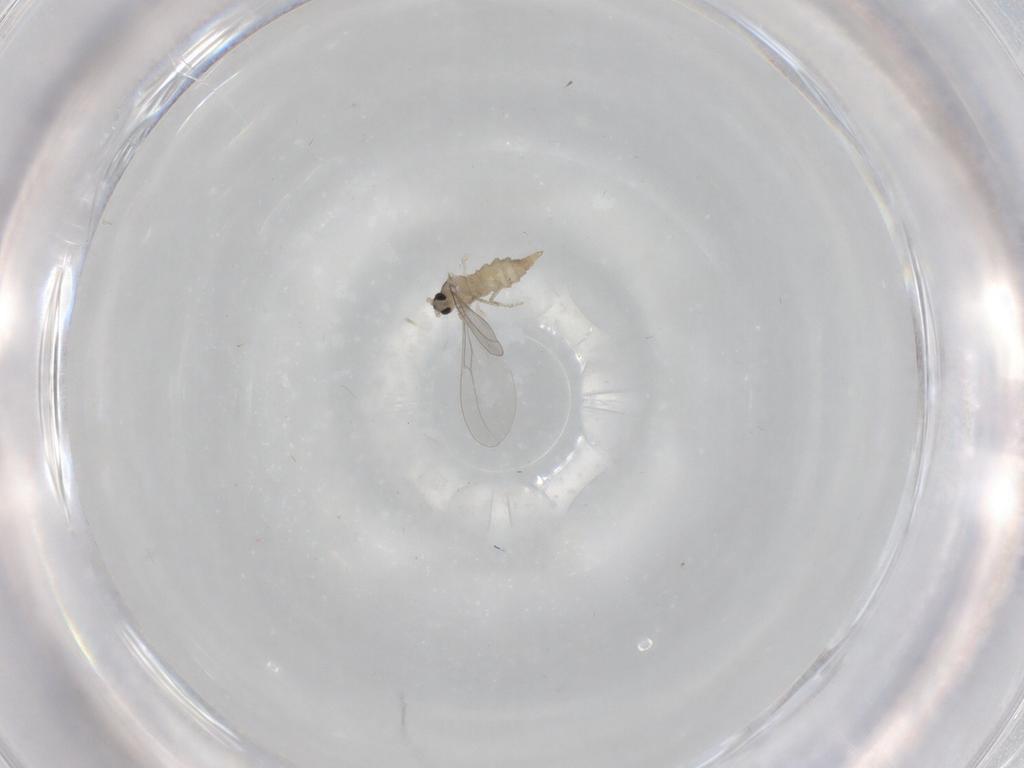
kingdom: Animalia
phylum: Arthropoda
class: Insecta
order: Diptera
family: Cecidomyiidae
